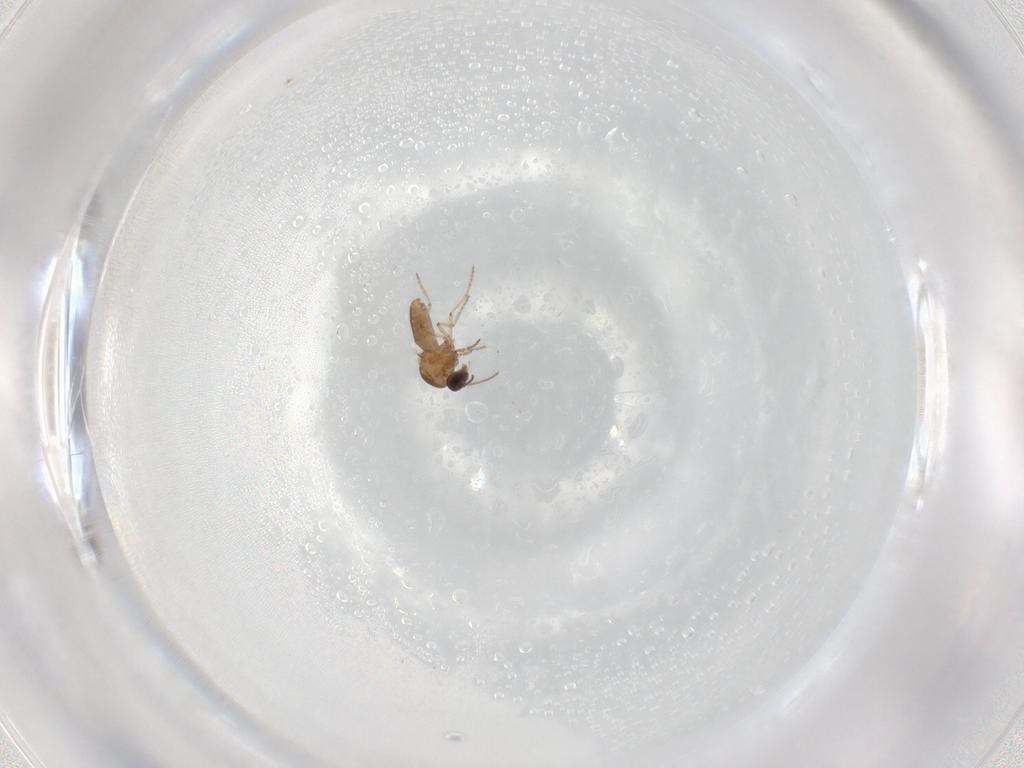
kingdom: Animalia
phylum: Arthropoda
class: Insecta
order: Diptera
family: Ceratopogonidae
